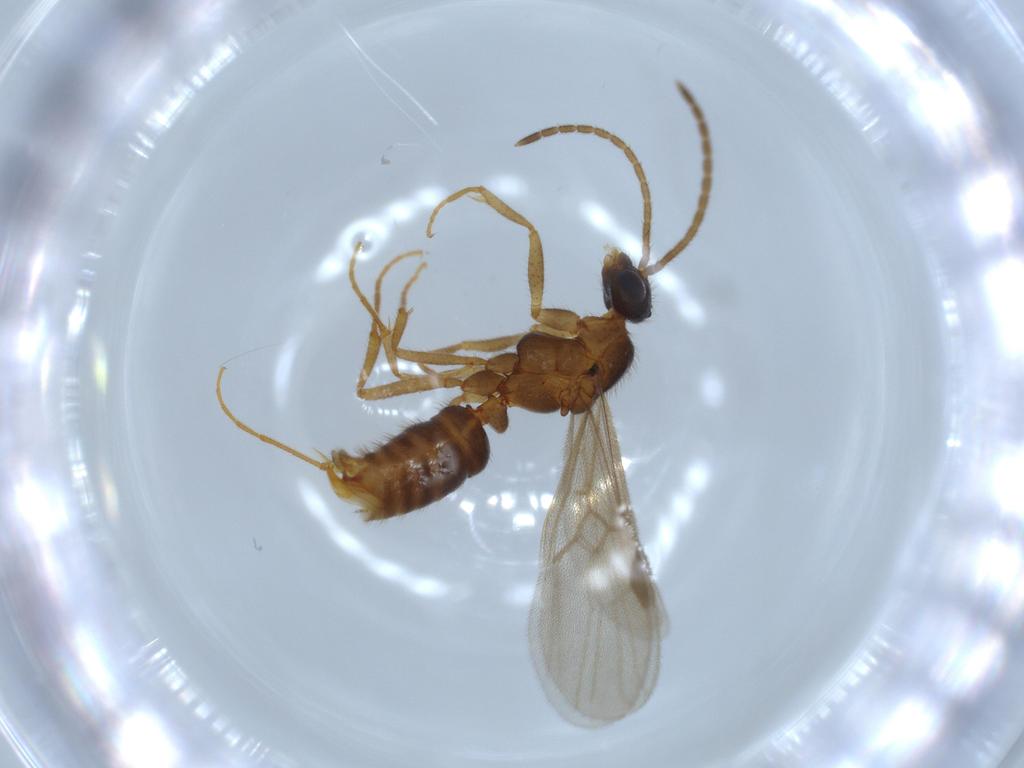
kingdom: Animalia
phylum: Arthropoda
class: Insecta
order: Hymenoptera
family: Formicidae
